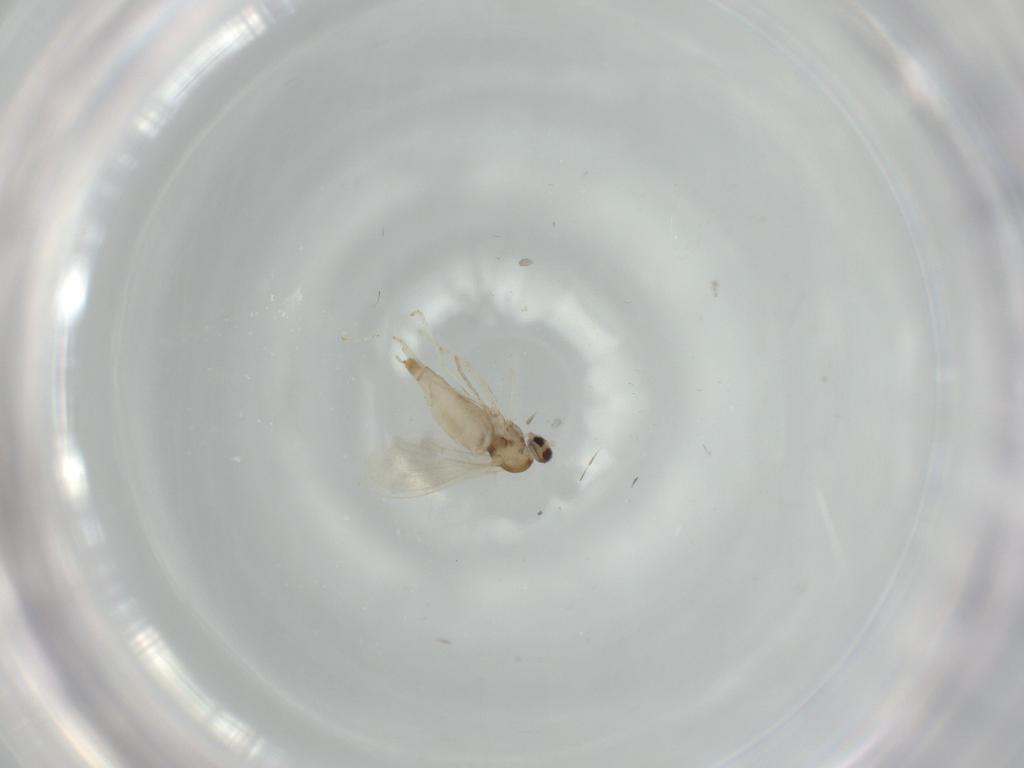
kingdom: Animalia
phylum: Arthropoda
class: Insecta
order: Diptera
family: Cecidomyiidae
